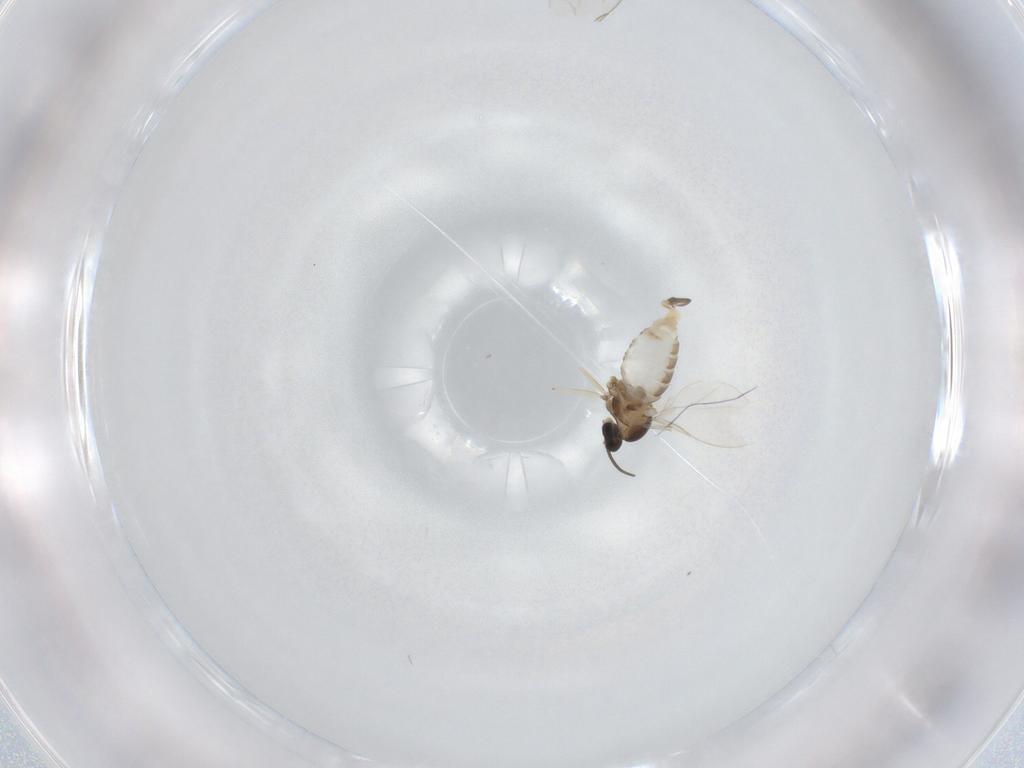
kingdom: Animalia
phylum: Arthropoda
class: Insecta
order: Diptera
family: Cecidomyiidae
